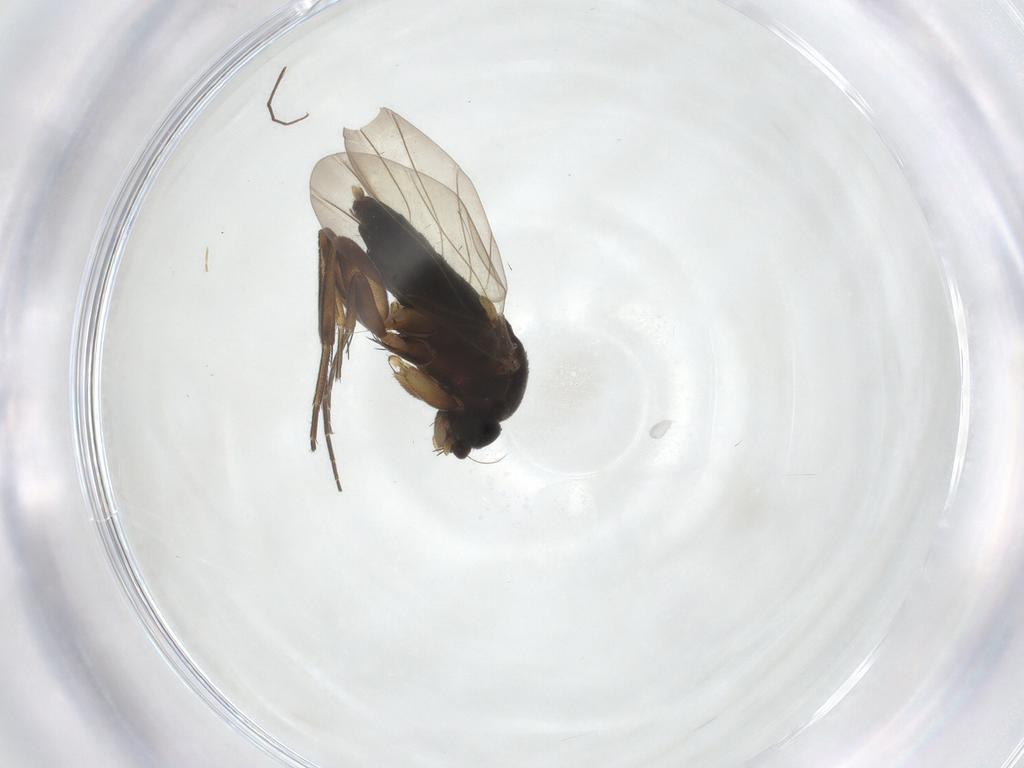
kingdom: Animalia
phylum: Arthropoda
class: Insecta
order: Diptera
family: Phoridae
